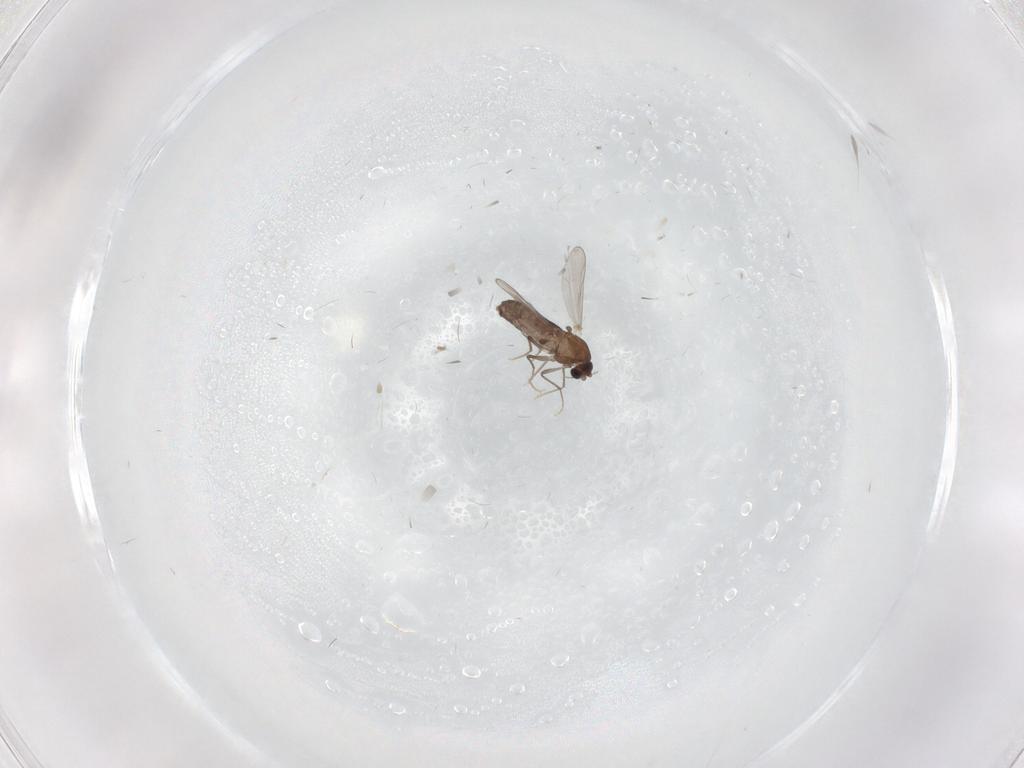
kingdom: Animalia
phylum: Arthropoda
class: Insecta
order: Diptera
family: Chironomidae
